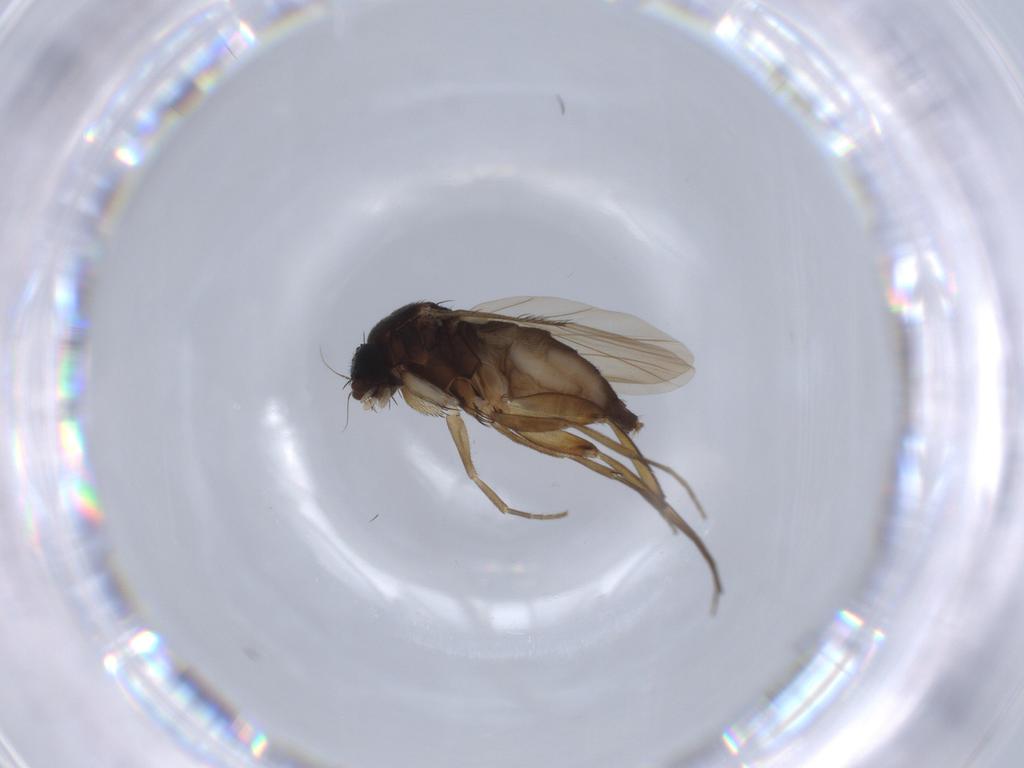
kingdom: Animalia
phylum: Arthropoda
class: Insecta
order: Diptera
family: Phoridae
